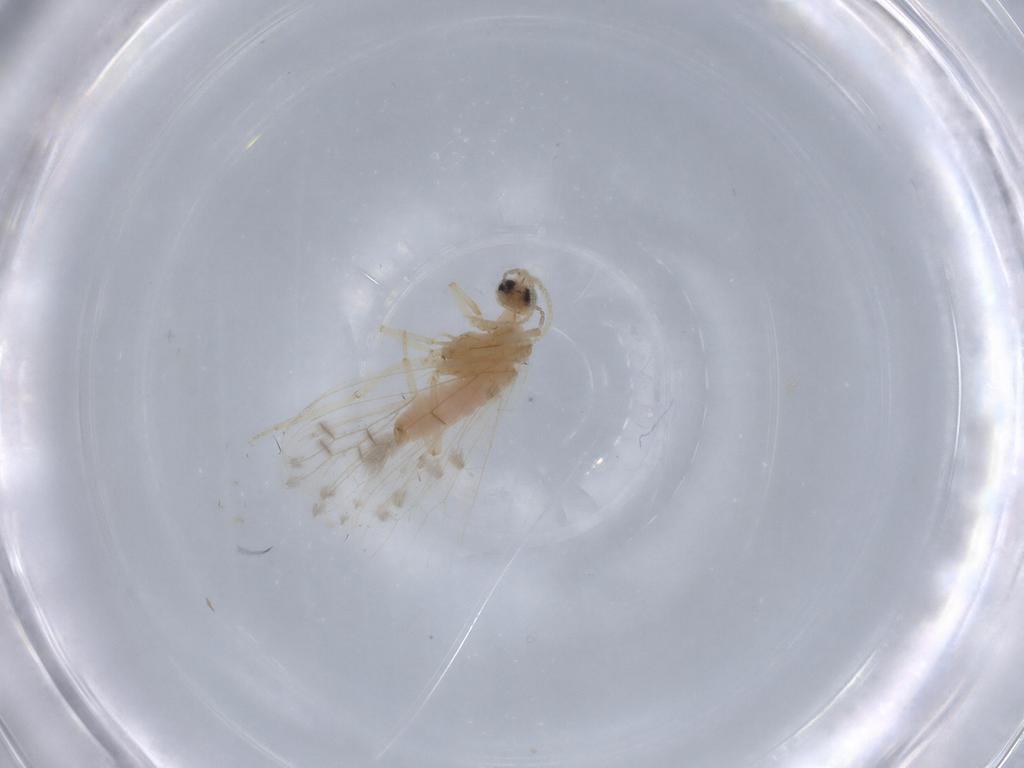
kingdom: Animalia
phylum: Arthropoda
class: Insecta
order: Neuroptera
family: Coniopterygidae
